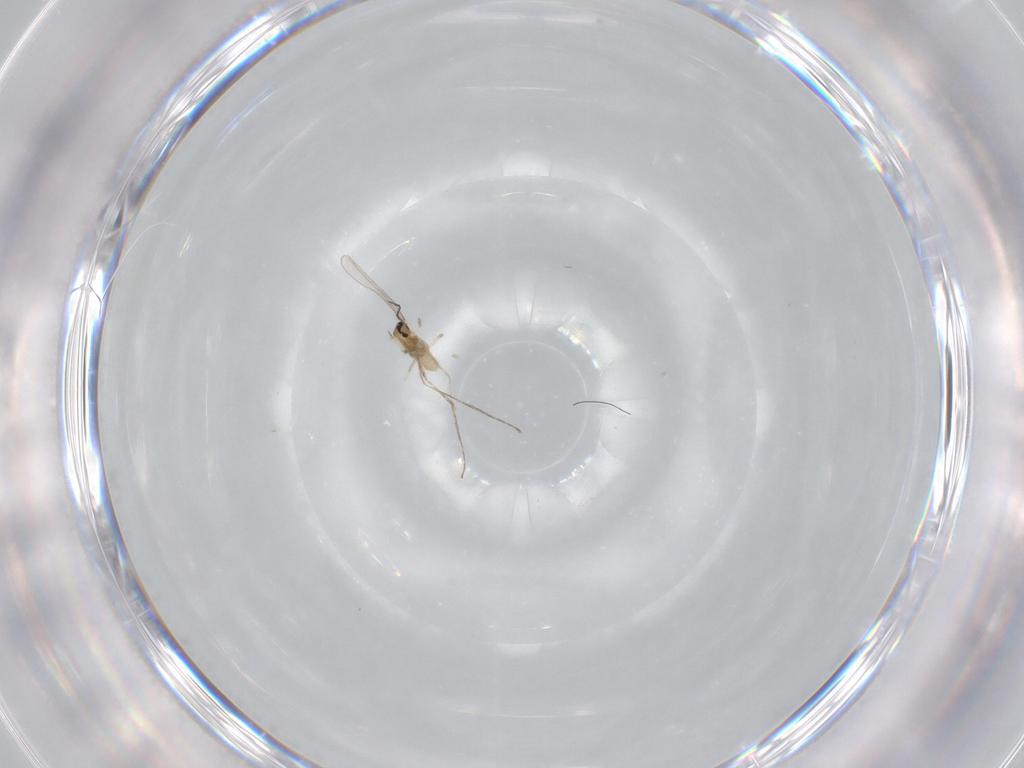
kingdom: Animalia
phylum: Arthropoda
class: Insecta
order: Diptera
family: Cecidomyiidae
